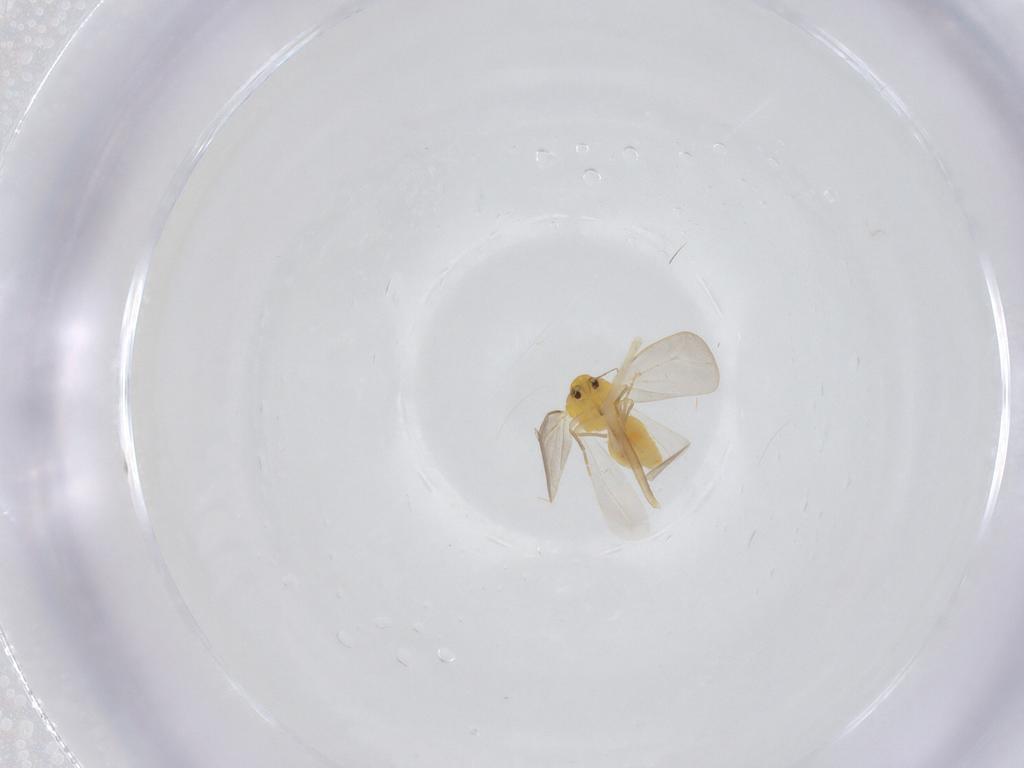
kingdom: Animalia
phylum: Arthropoda
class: Insecta
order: Hemiptera
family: Aleyrodidae
